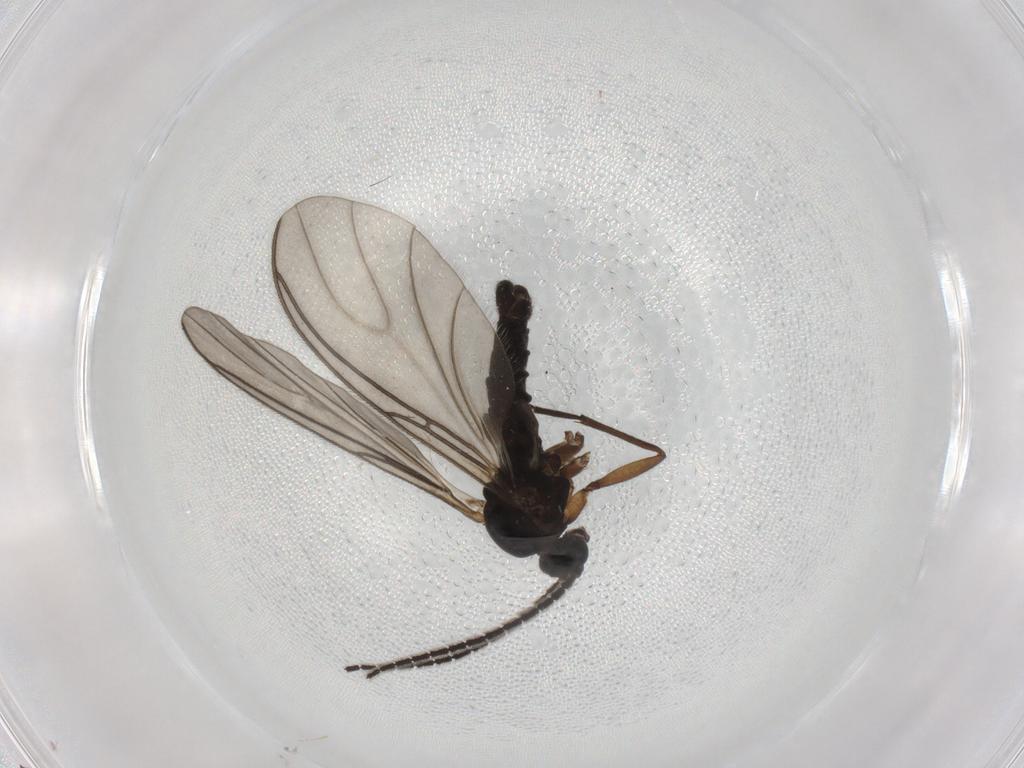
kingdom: Animalia
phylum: Arthropoda
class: Insecta
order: Diptera
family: Sciaridae
